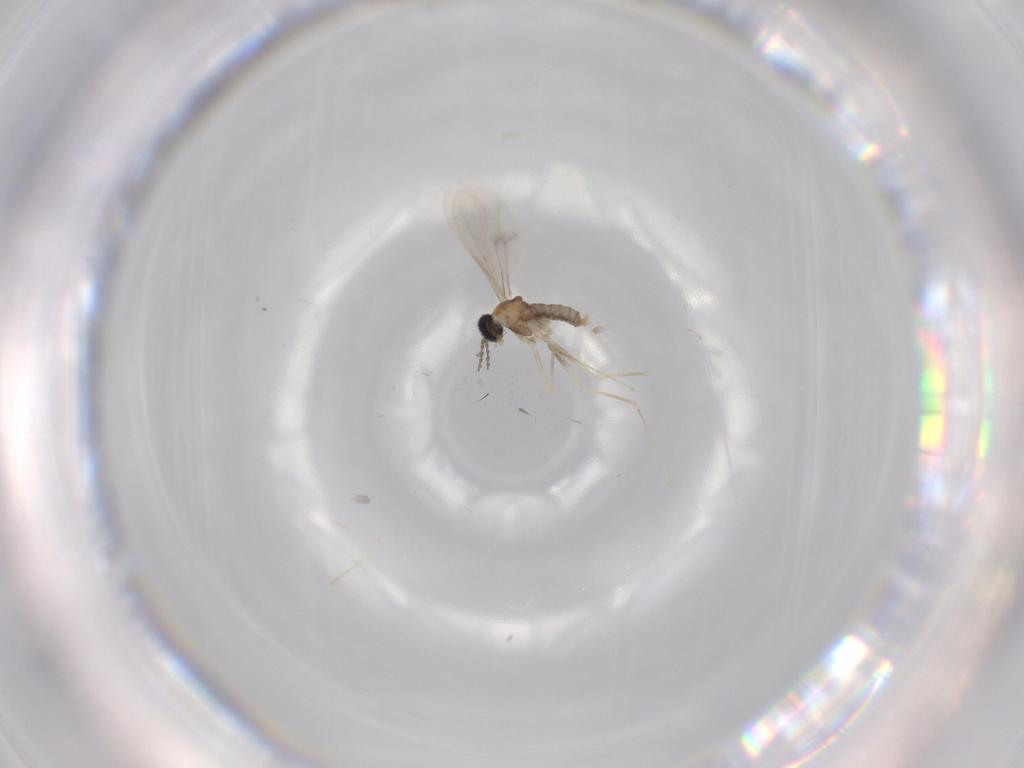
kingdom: Animalia
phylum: Arthropoda
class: Insecta
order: Diptera
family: Cecidomyiidae
